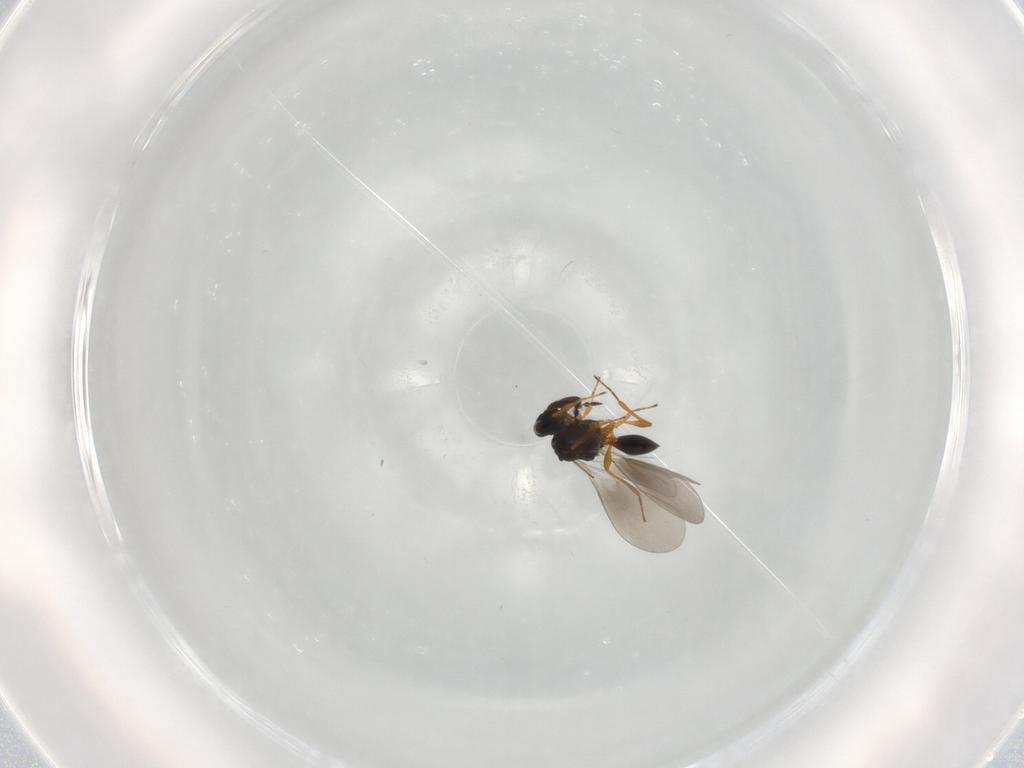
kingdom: Animalia
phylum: Arthropoda
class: Insecta
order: Hymenoptera
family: Platygastridae
